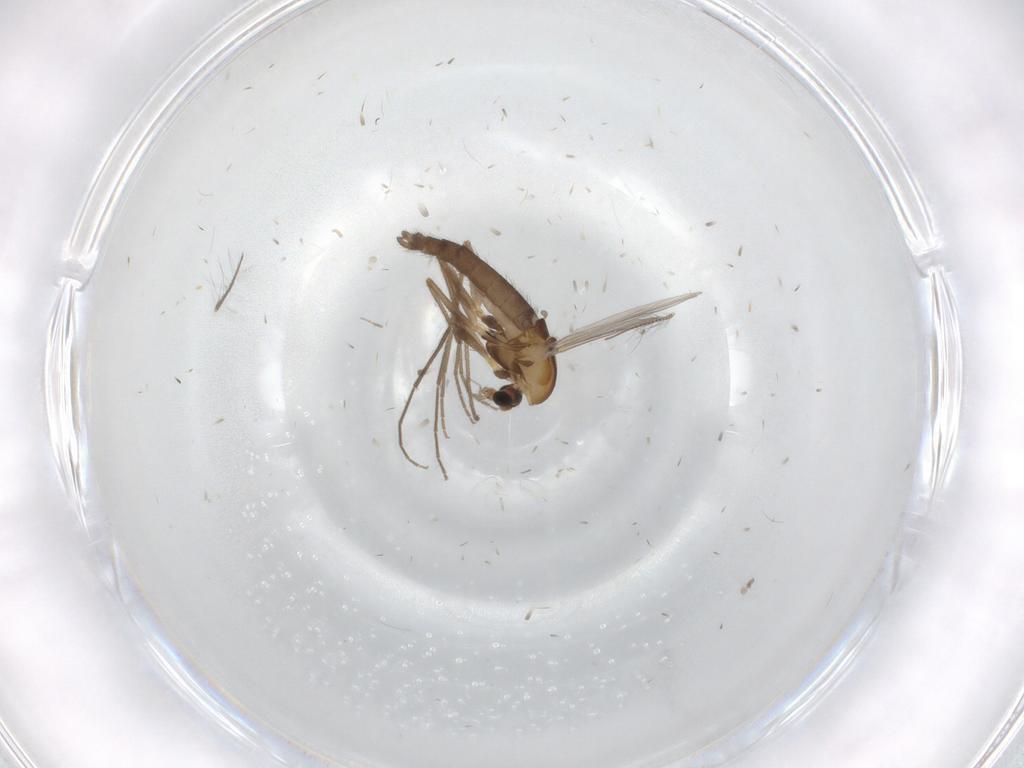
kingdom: Animalia
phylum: Arthropoda
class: Insecta
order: Diptera
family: Chironomidae
